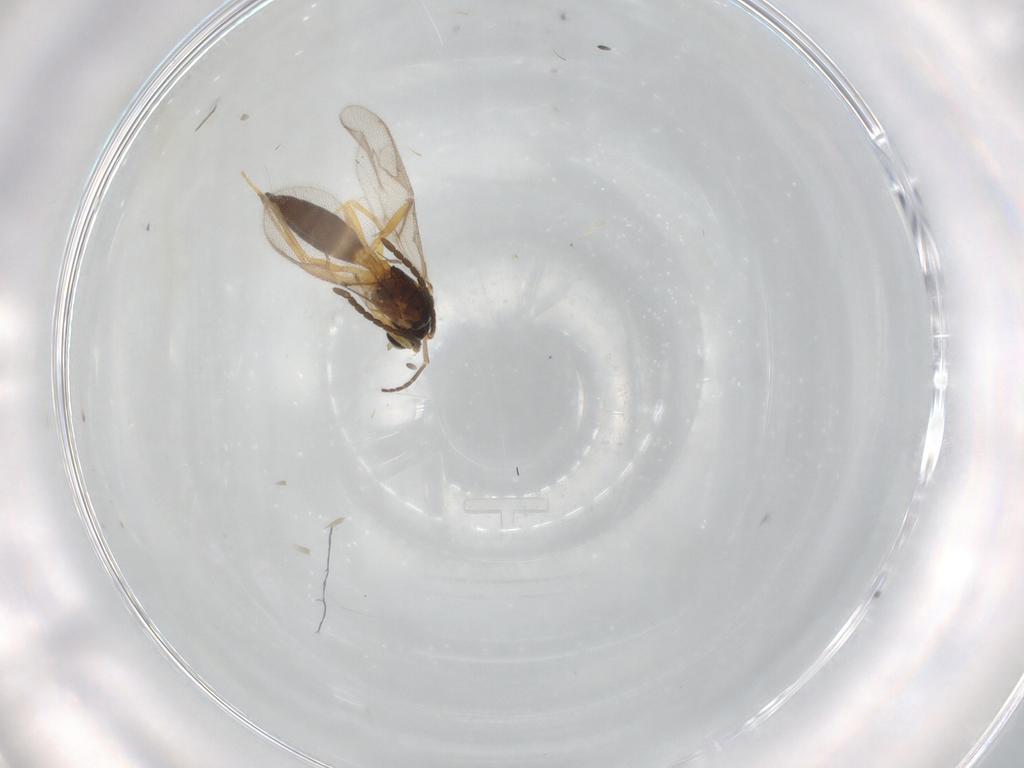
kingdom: Animalia
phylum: Arthropoda
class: Insecta
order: Hymenoptera
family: Braconidae
